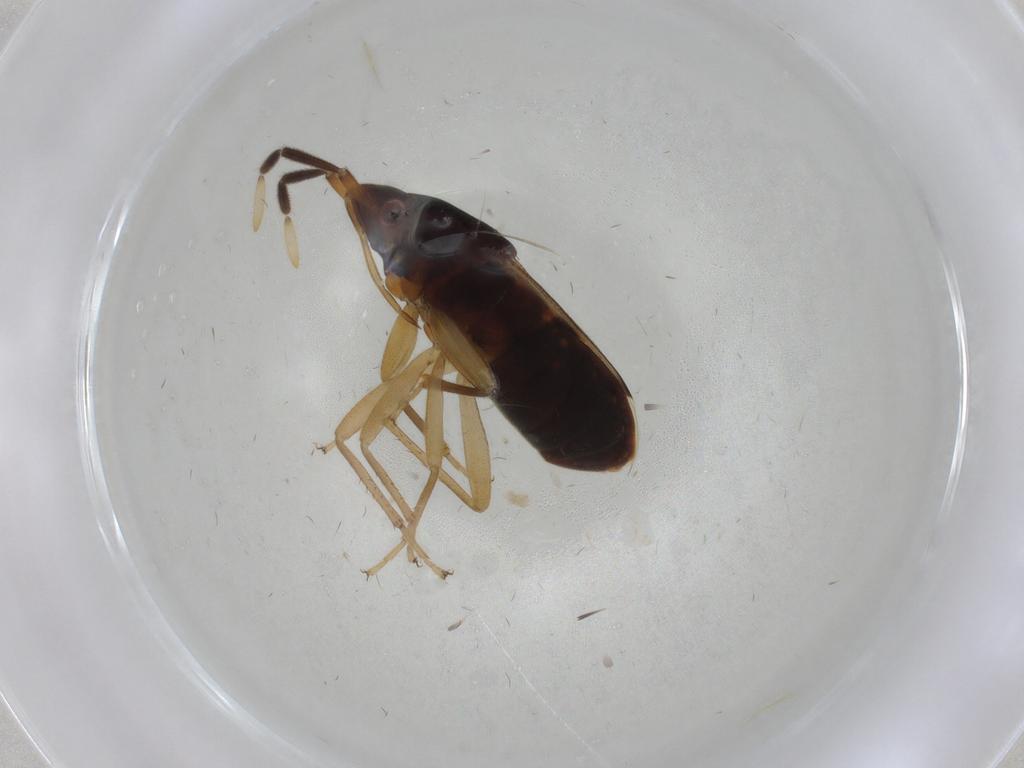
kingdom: Animalia
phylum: Arthropoda
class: Insecta
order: Hemiptera
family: Rhyparochromidae
